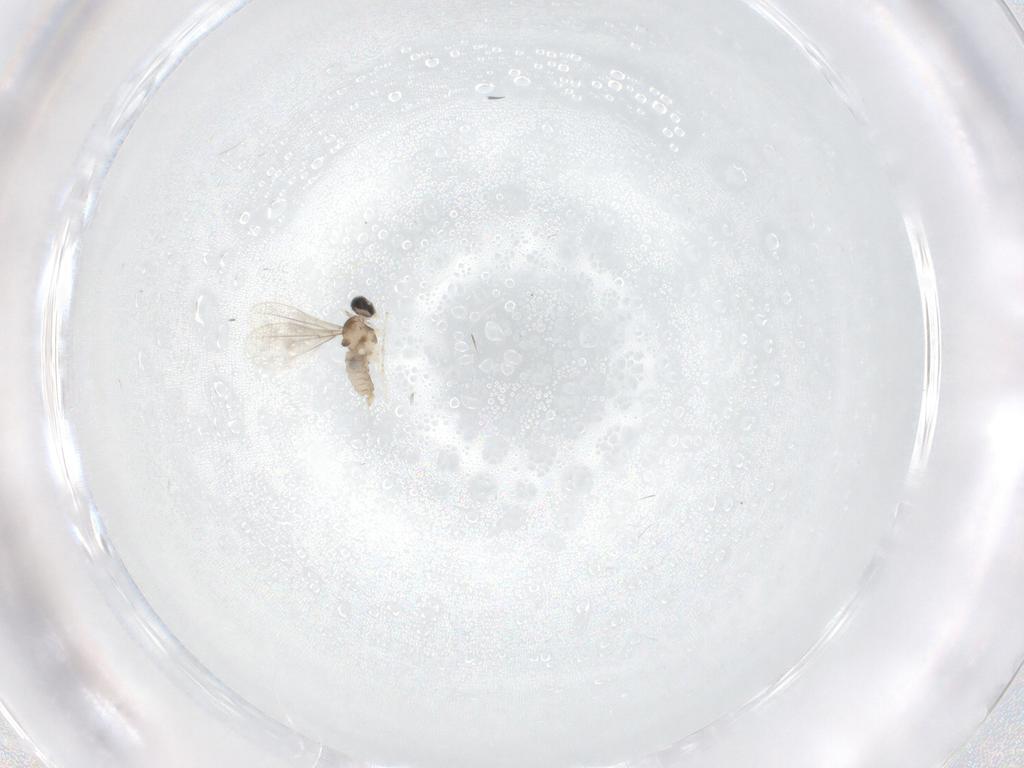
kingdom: Animalia
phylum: Arthropoda
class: Insecta
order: Diptera
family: Cecidomyiidae
